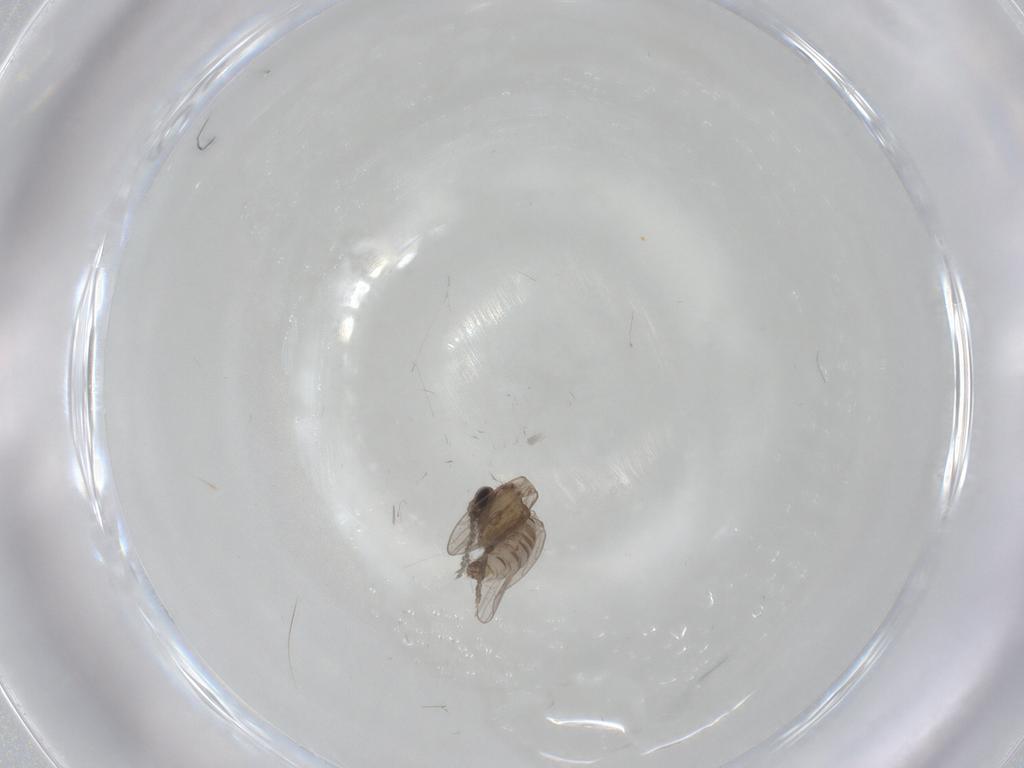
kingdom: Animalia
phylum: Arthropoda
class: Insecta
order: Diptera
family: Psychodidae
